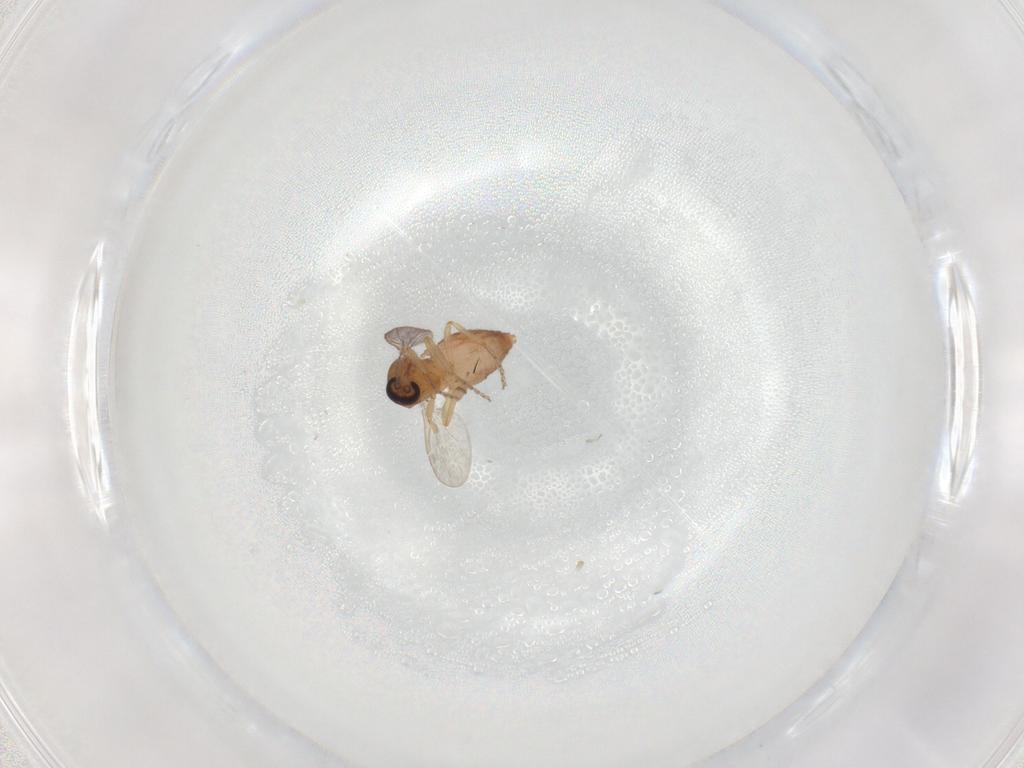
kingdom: Animalia
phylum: Arthropoda
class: Insecta
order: Diptera
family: Ceratopogonidae
